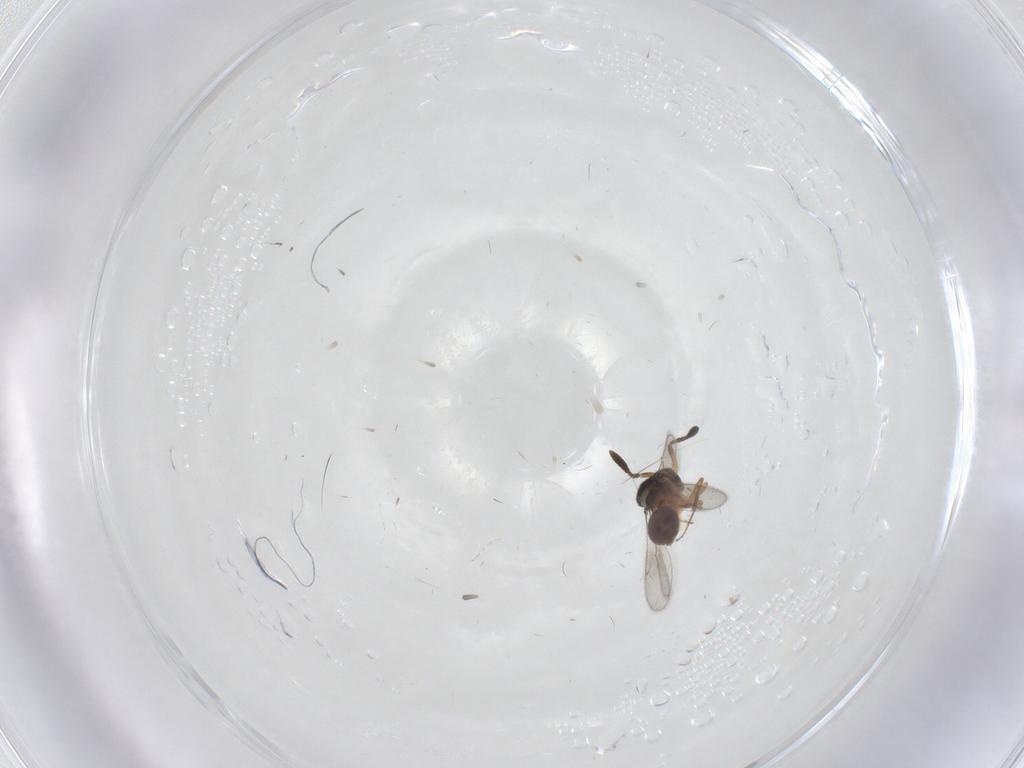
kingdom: Animalia
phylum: Arthropoda
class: Insecta
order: Hymenoptera
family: Scelionidae
